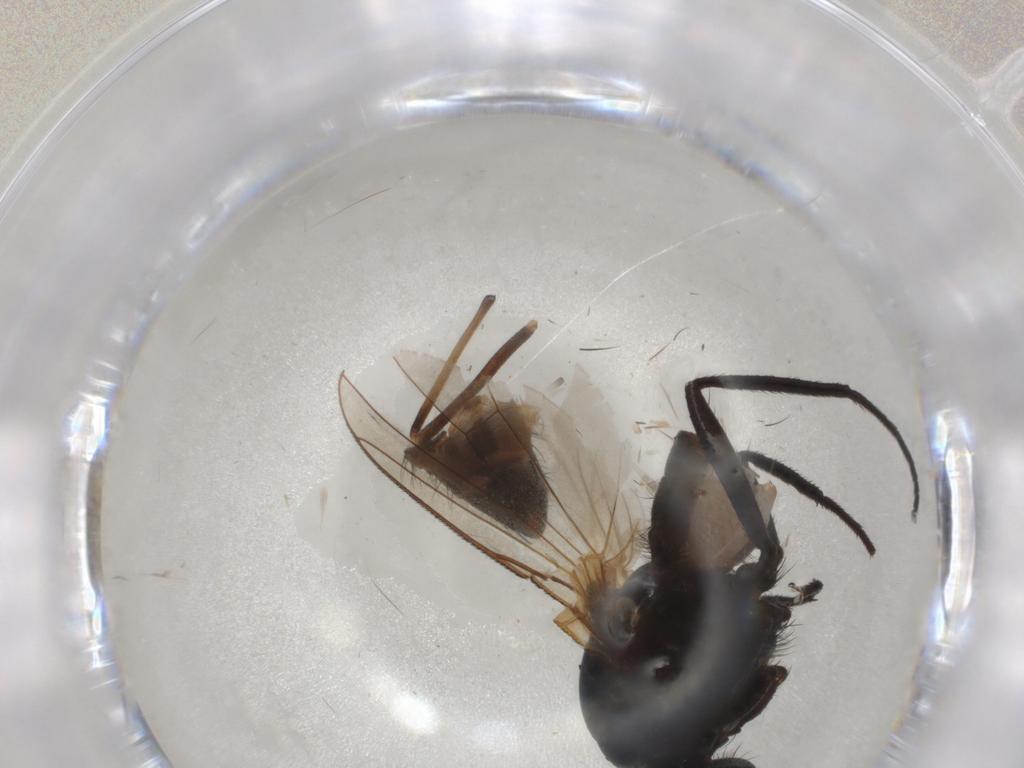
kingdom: Animalia
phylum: Arthropoda
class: Insecta
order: Diptera
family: Anthomyiidae
